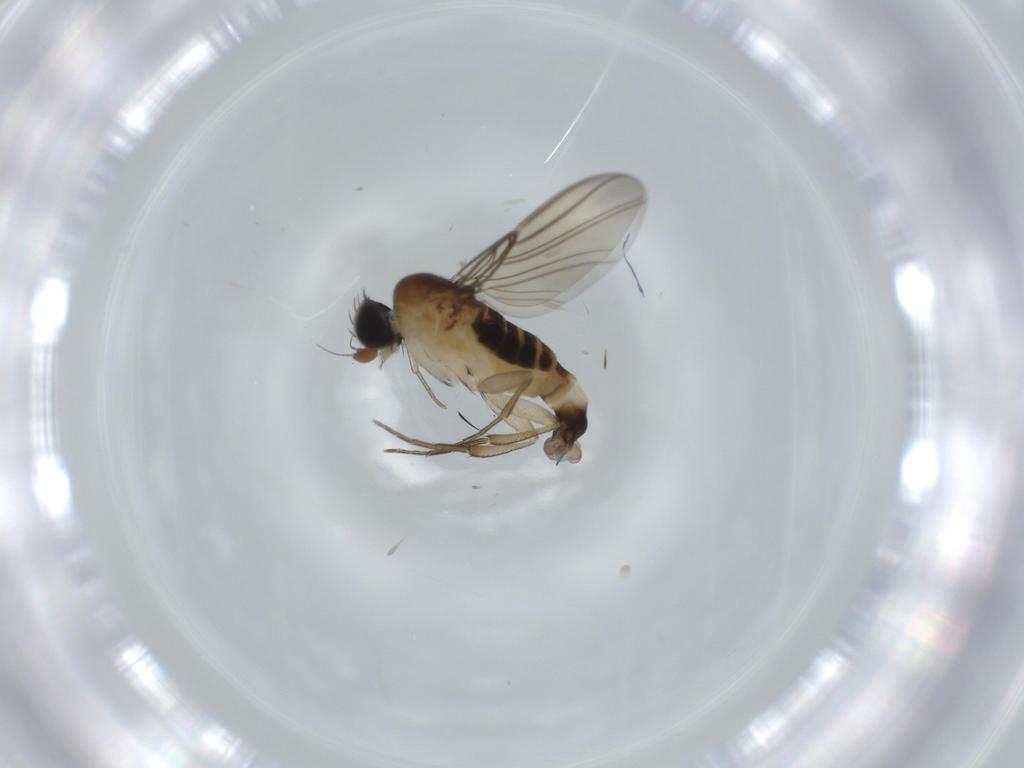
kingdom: Animalia
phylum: Arthropoda
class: Insecta
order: Diptera
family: Phoridae
